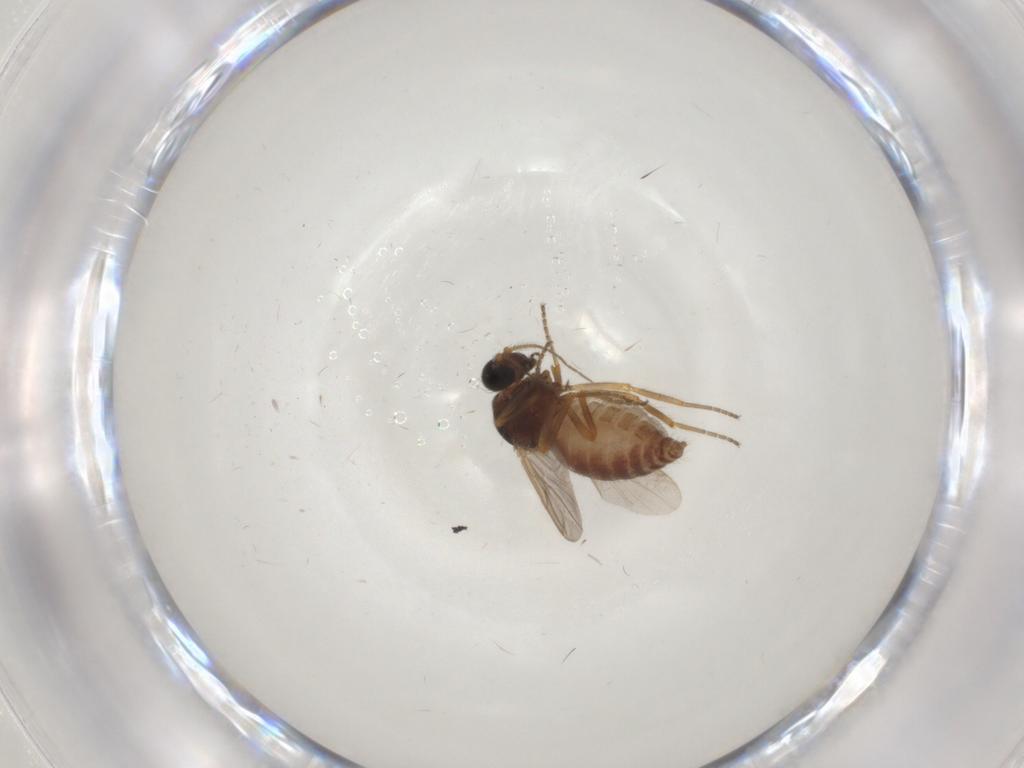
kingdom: Animalia
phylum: Arthropoda
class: Insecta
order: Diptera
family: Ceratopogonidae
